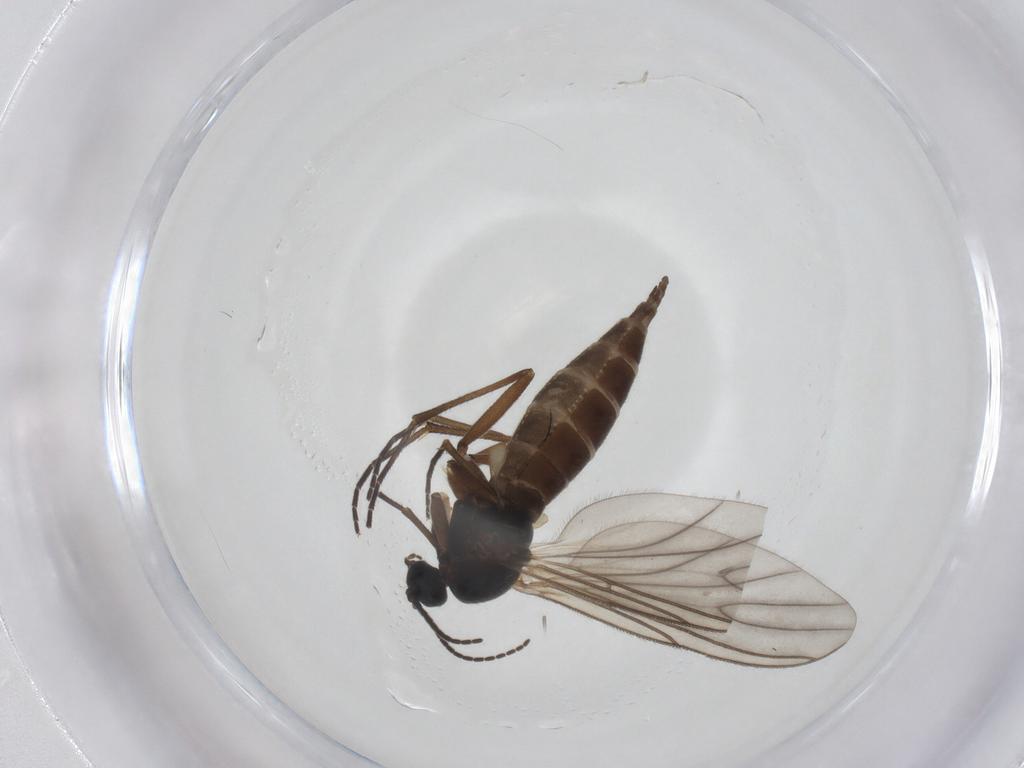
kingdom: Animalia
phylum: Arthropoda
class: Insecta
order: Diptera
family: Sciaridae
